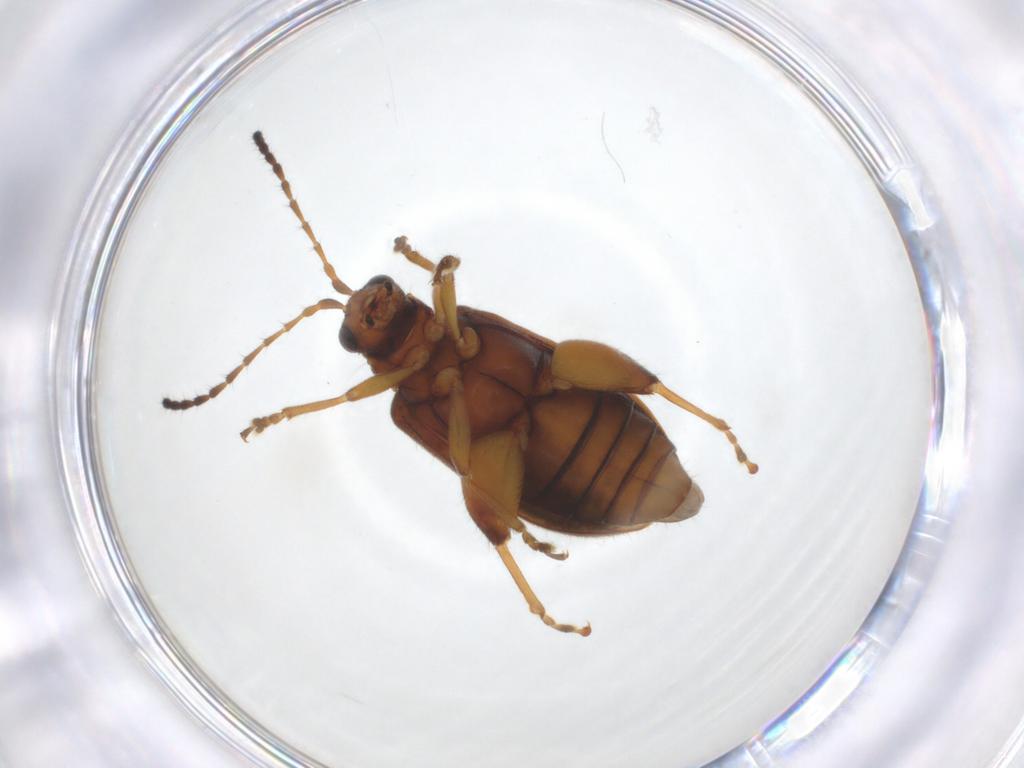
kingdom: Animalia
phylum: Arthropoda
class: Insecta
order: Coleoptera
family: Chrysomelidae
